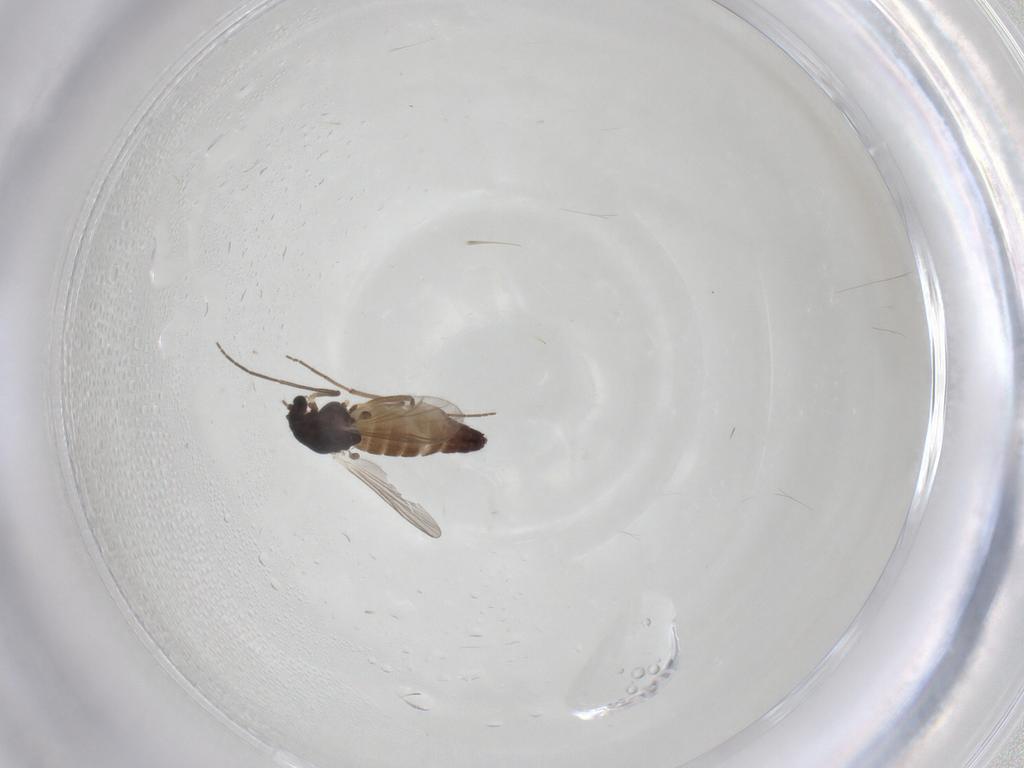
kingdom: Animalia
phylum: Arthropoda
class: Insecta
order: Diptera
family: Chironomidae
